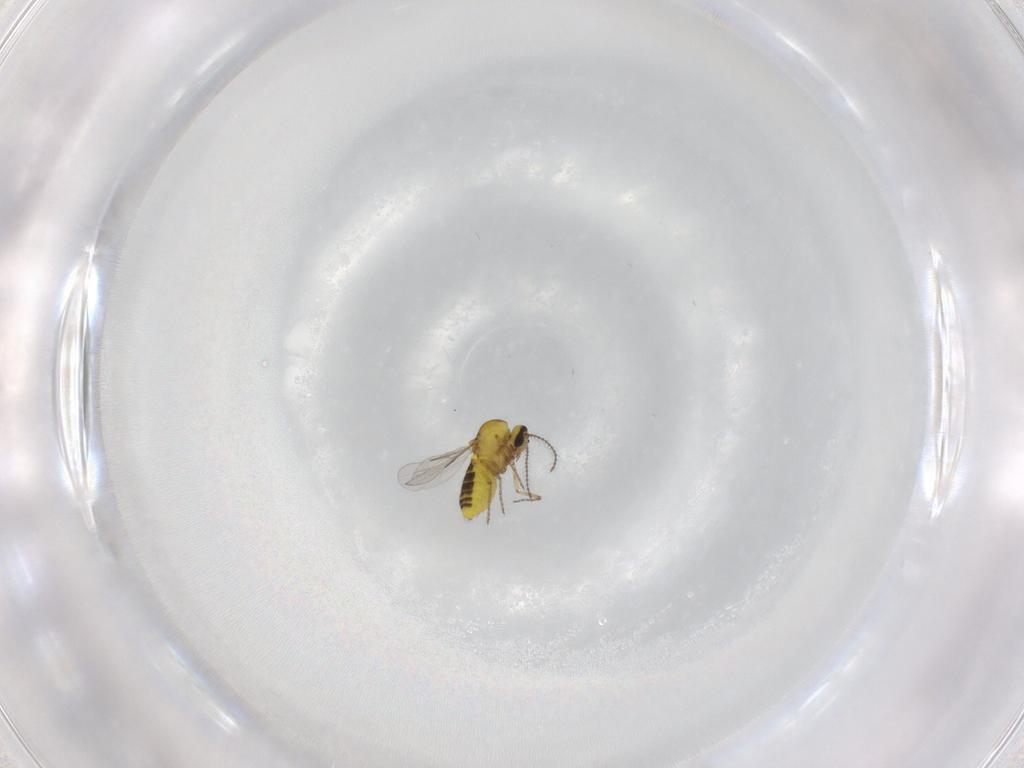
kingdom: Animalia
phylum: Arthropoda
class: Insecta
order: Diptera
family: Ceratopogonidae
